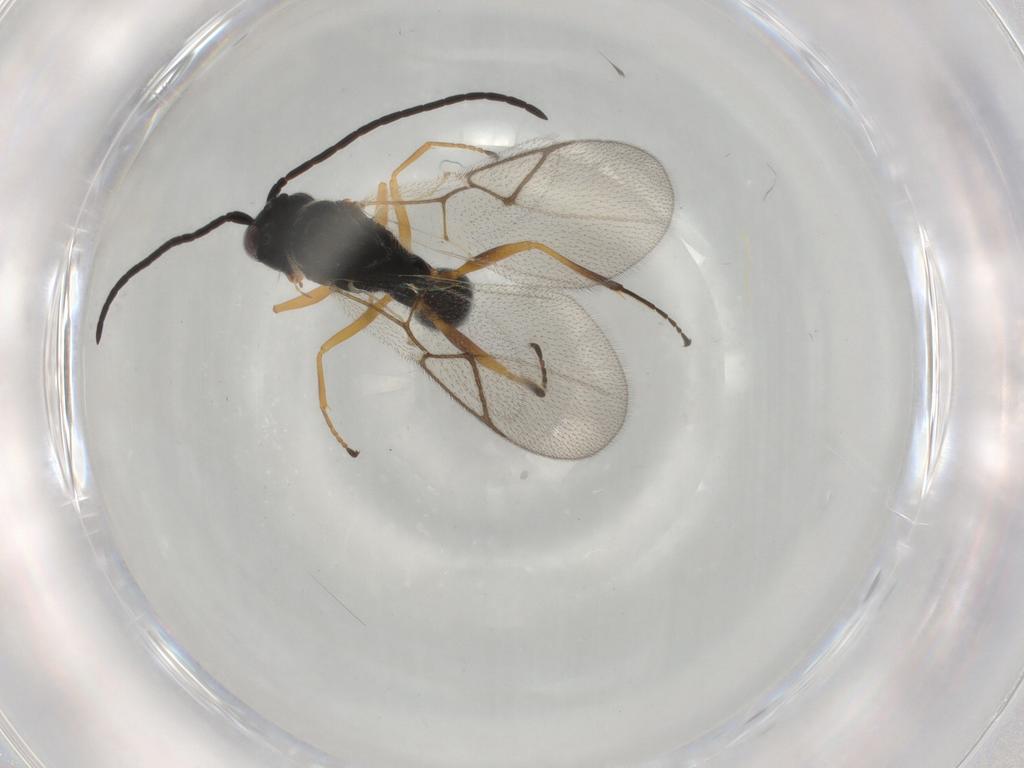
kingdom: Animalia
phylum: Arthropoda
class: Insecta
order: Hymenoptera
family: Figitidae
